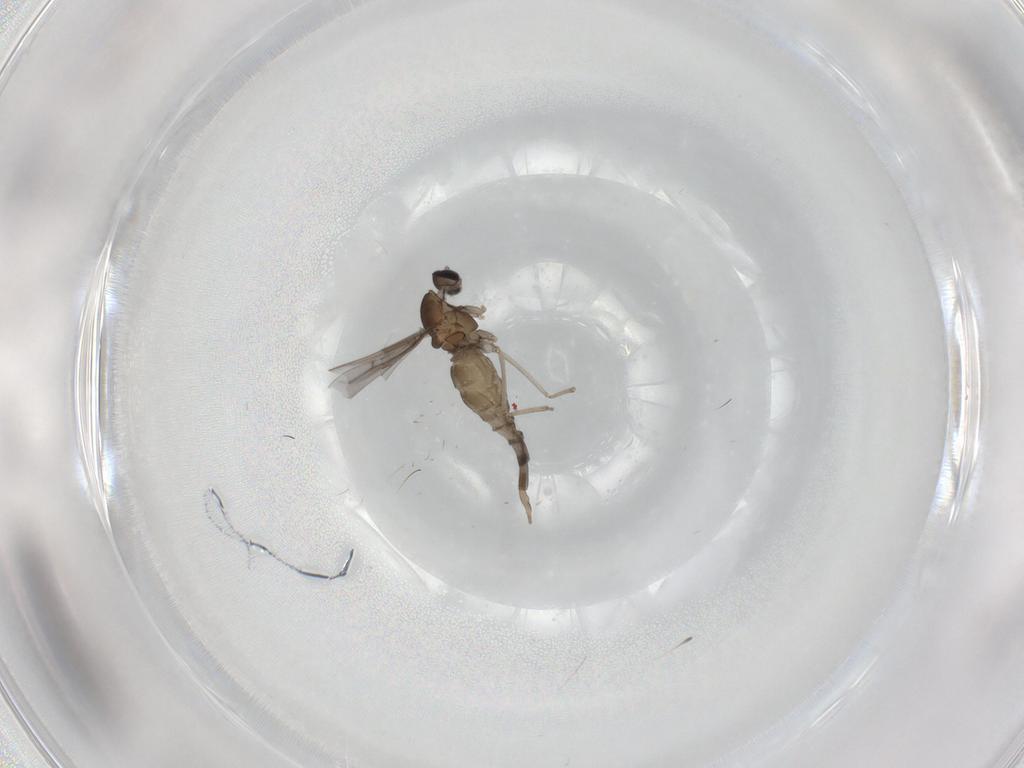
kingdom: Animalia
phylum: Arthropoda
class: Insecta
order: Diptera
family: Cecidomyiidae
